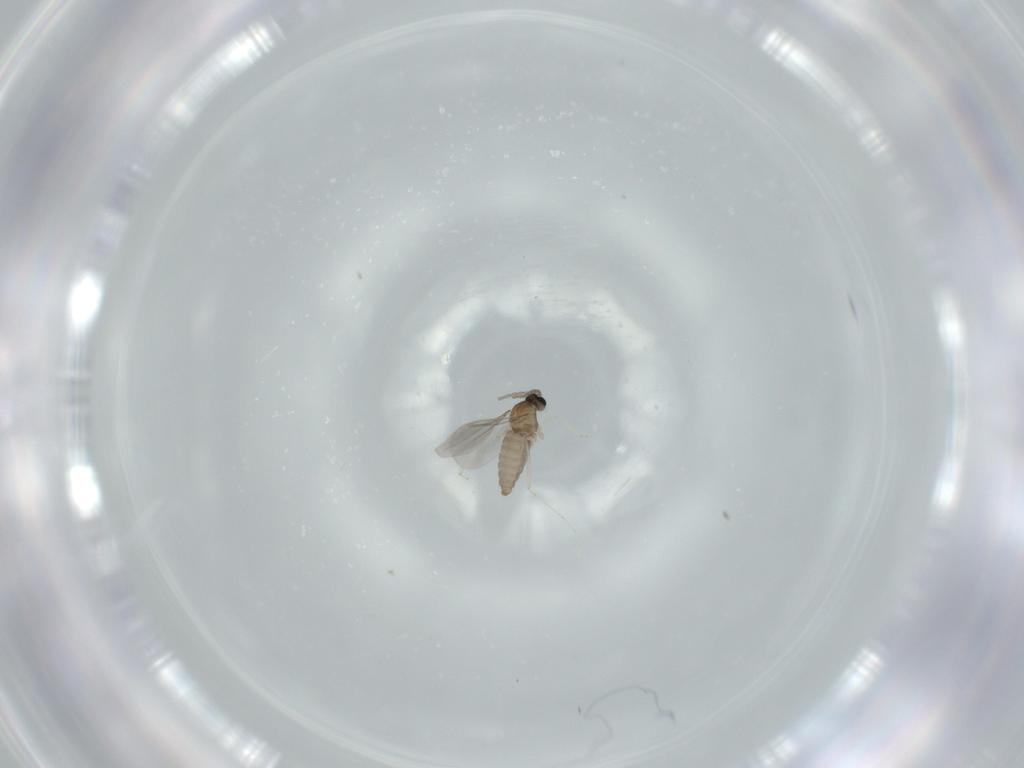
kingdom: Animalia
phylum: Arthropoda
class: Insecta
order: Diptera
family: Cecidomyiidae
